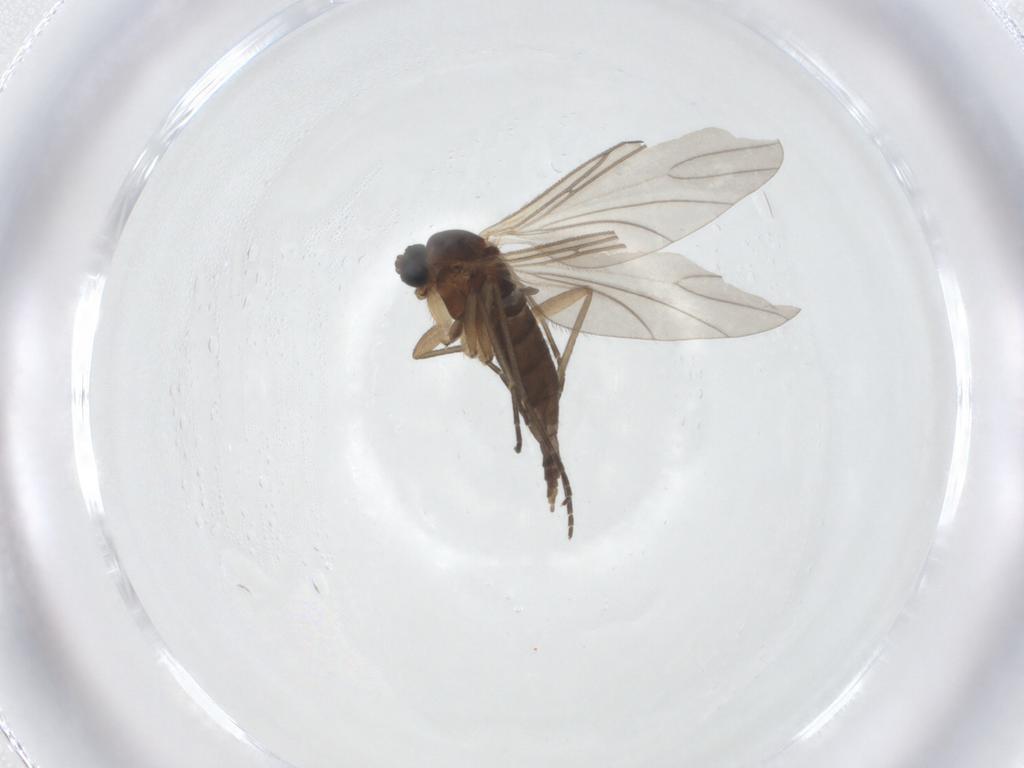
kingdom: Animalia
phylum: Arthropoda
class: Insecta
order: Diptera
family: Sciaridae
